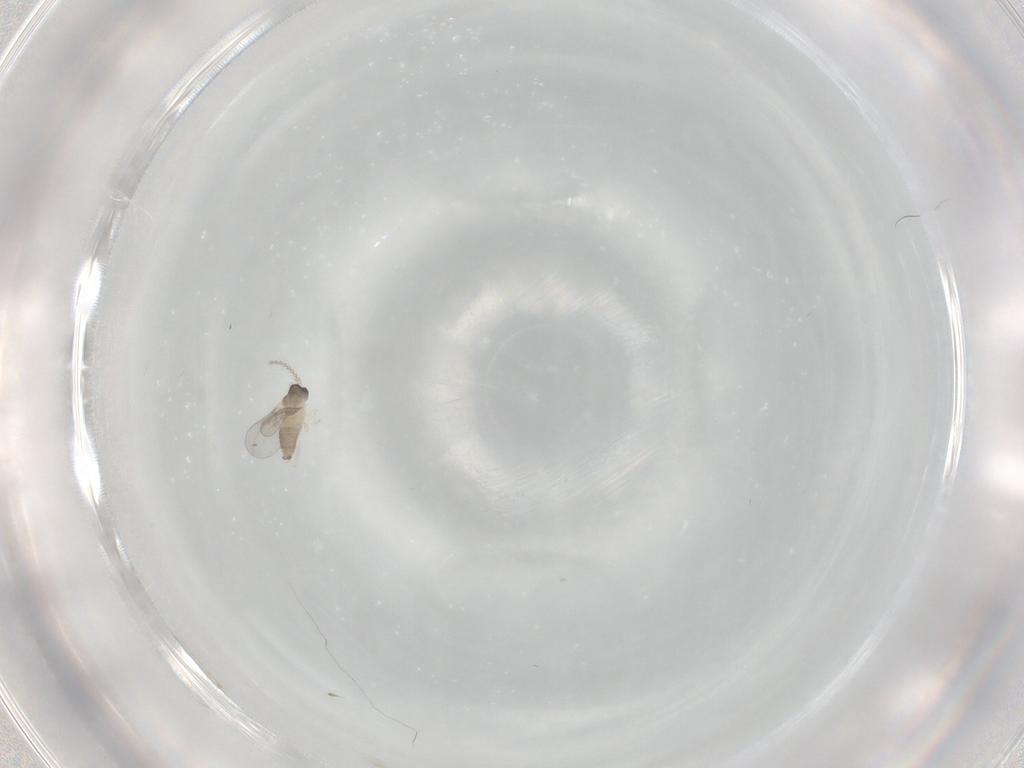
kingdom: Animalia
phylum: Arthropoda
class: Insecta
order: Diptera
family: Cecidomyiidae
